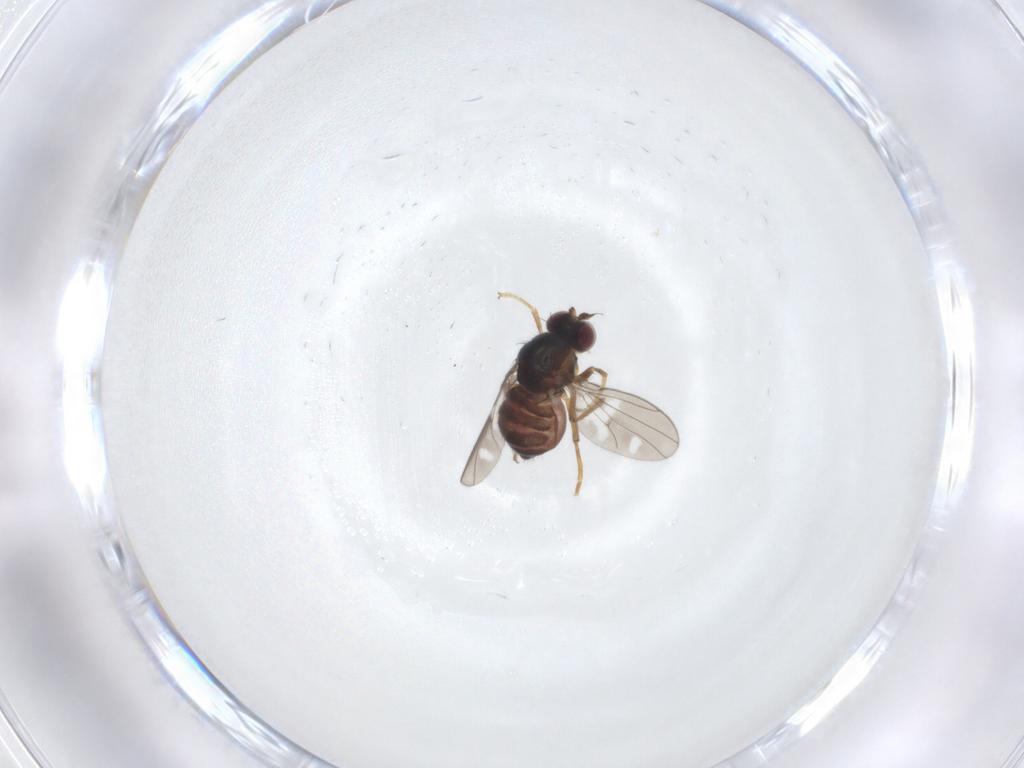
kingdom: Animalia
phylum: Arthropoda
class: Insecta
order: Diptera
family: Ephydridae
